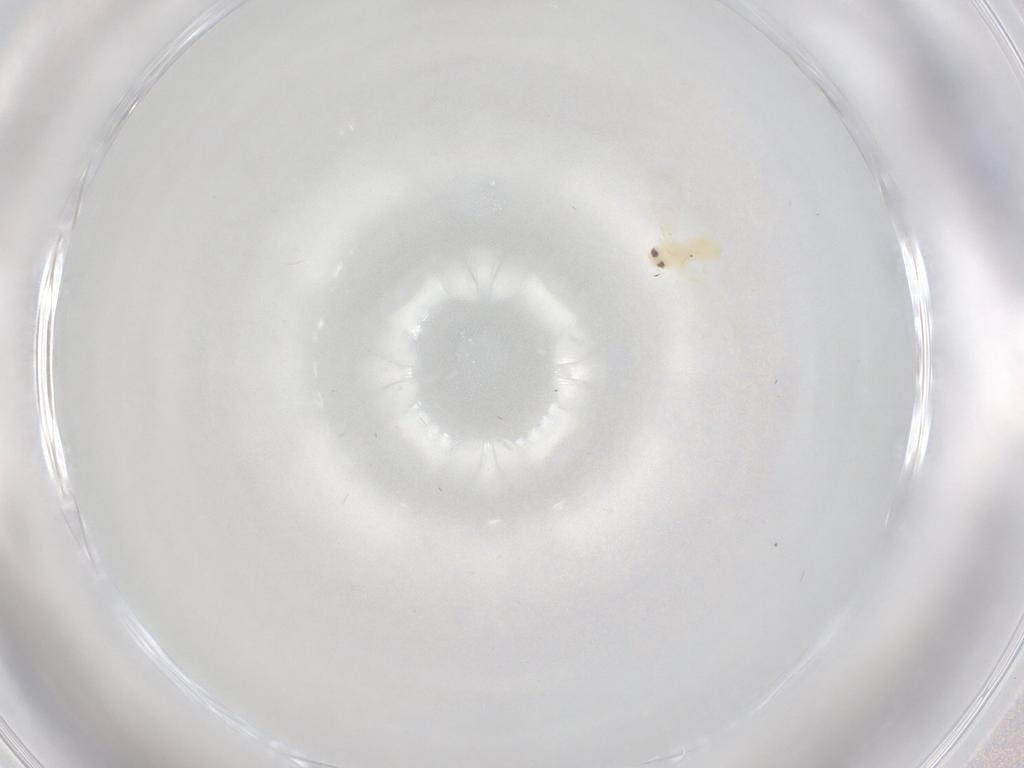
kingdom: Animalia
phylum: Arthropoda
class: Insecta
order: Hemiptera
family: Aleyrodidae
